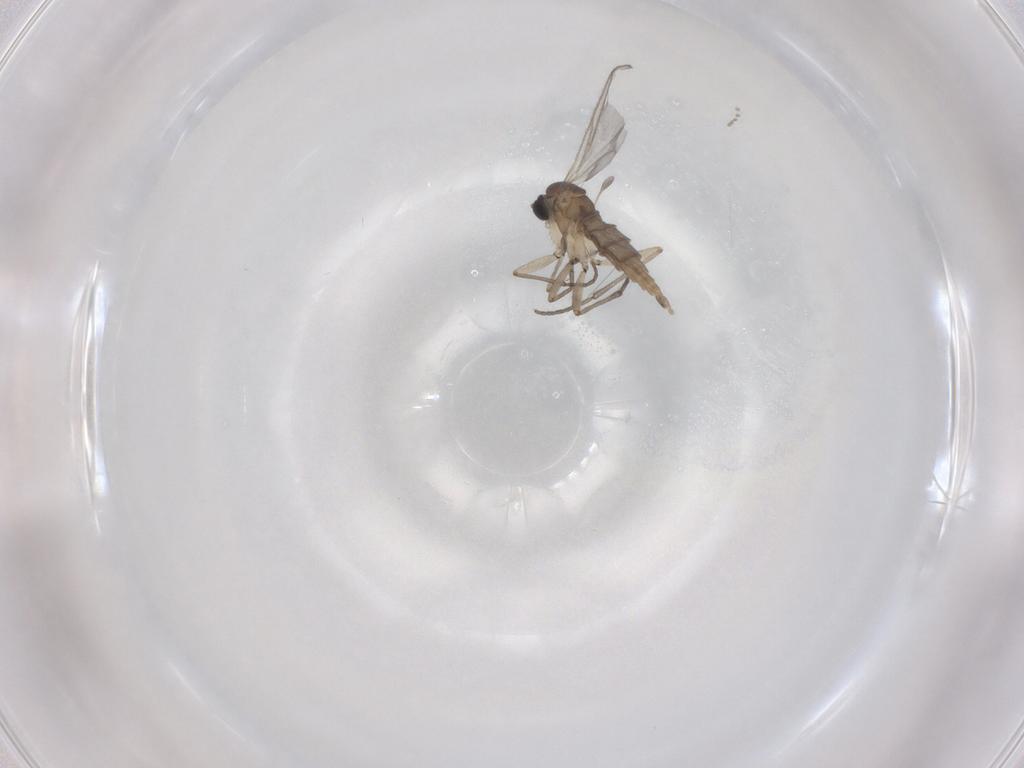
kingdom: Animalia
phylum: Arthropoda
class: Insecta
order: Diptera
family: Sciaridae
